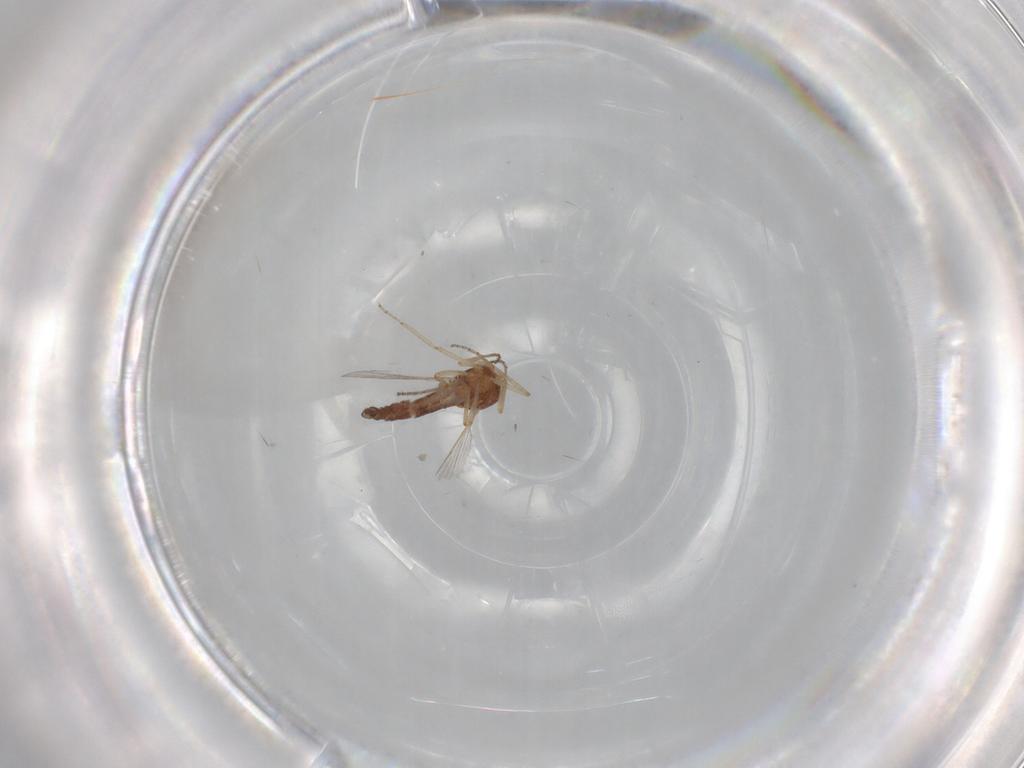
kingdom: Animalia
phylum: Arthropoda
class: Insecta
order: Diptera
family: Ceratopogonidae
